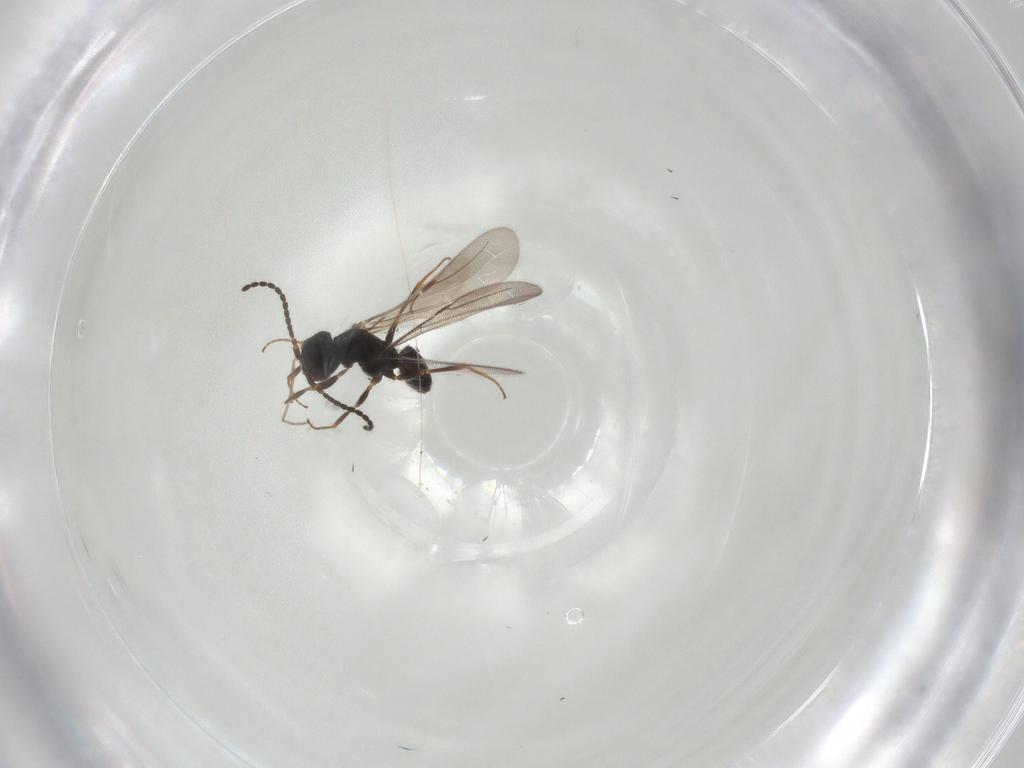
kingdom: Animalia
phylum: Arthropoda
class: Insecta
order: Hymenoptera
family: Bethylidae
